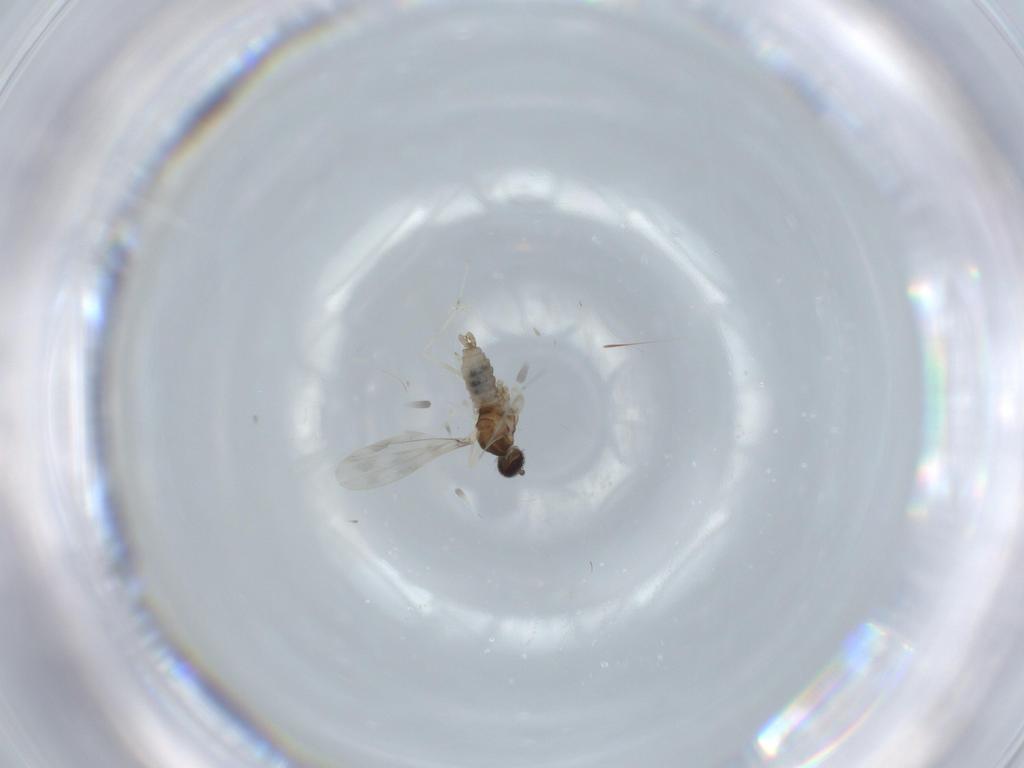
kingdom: Animalia
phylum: Arthropoda
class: Insecta
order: Diptera
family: Cecidomyiidae
